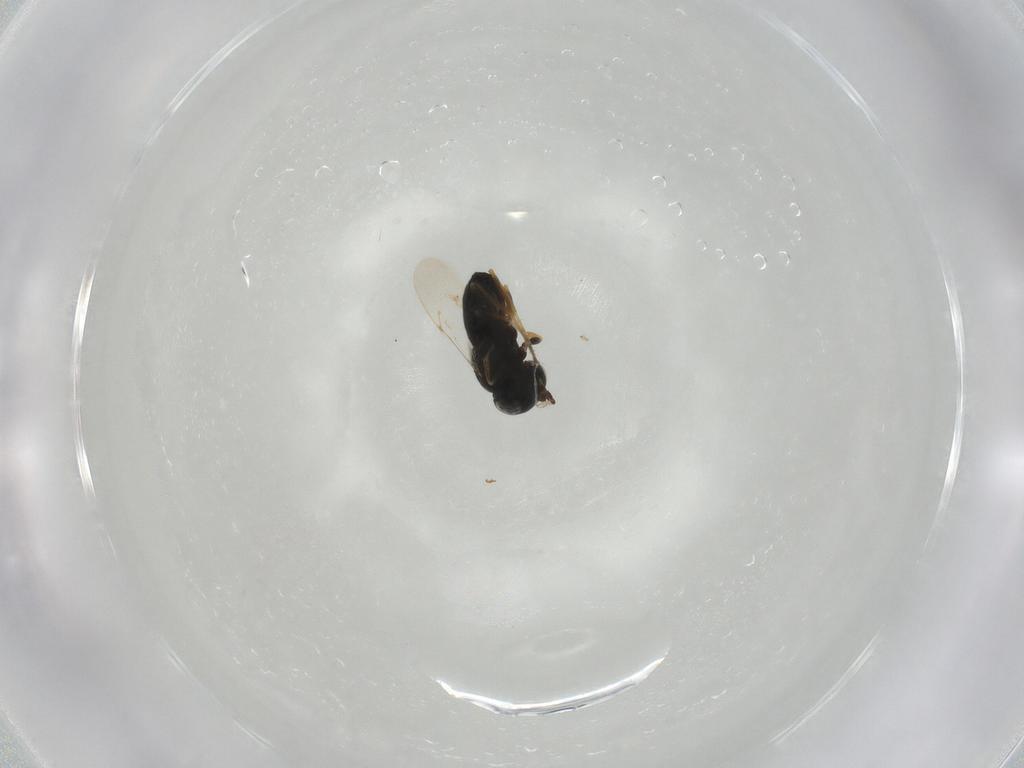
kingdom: Animalia
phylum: Arthropoda
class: Insecta
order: Hymenoptera
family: Scelionidae
